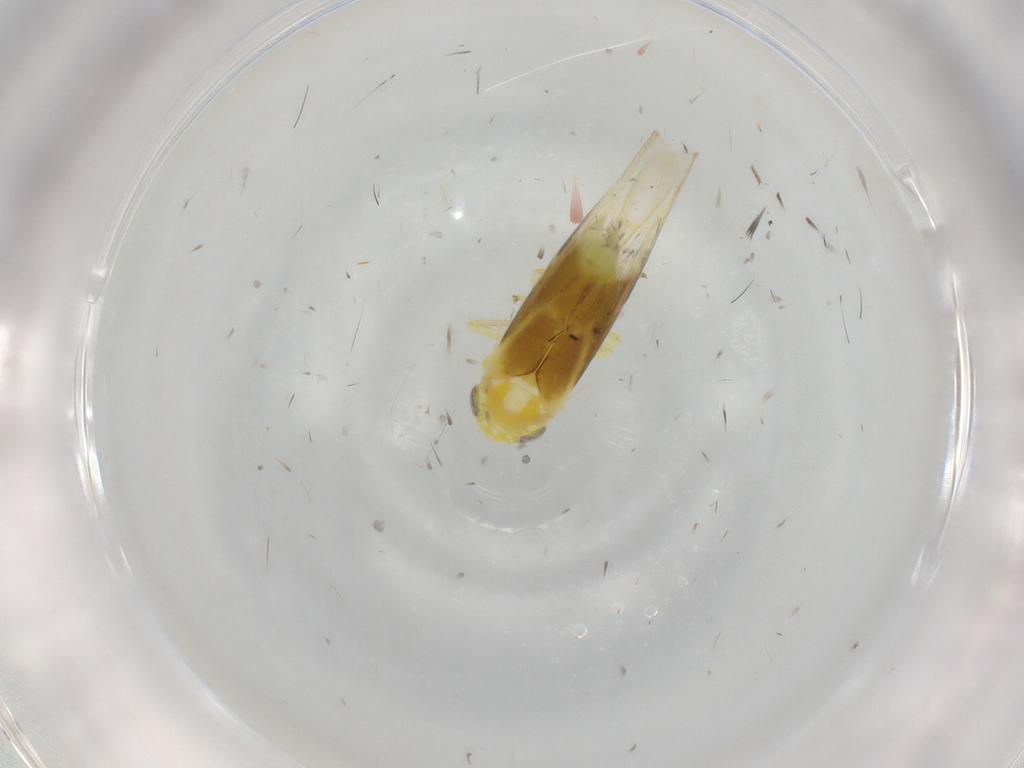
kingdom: Animalia
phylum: Arthropoda
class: Insecta
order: Hemiptera
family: Cicadellidae
